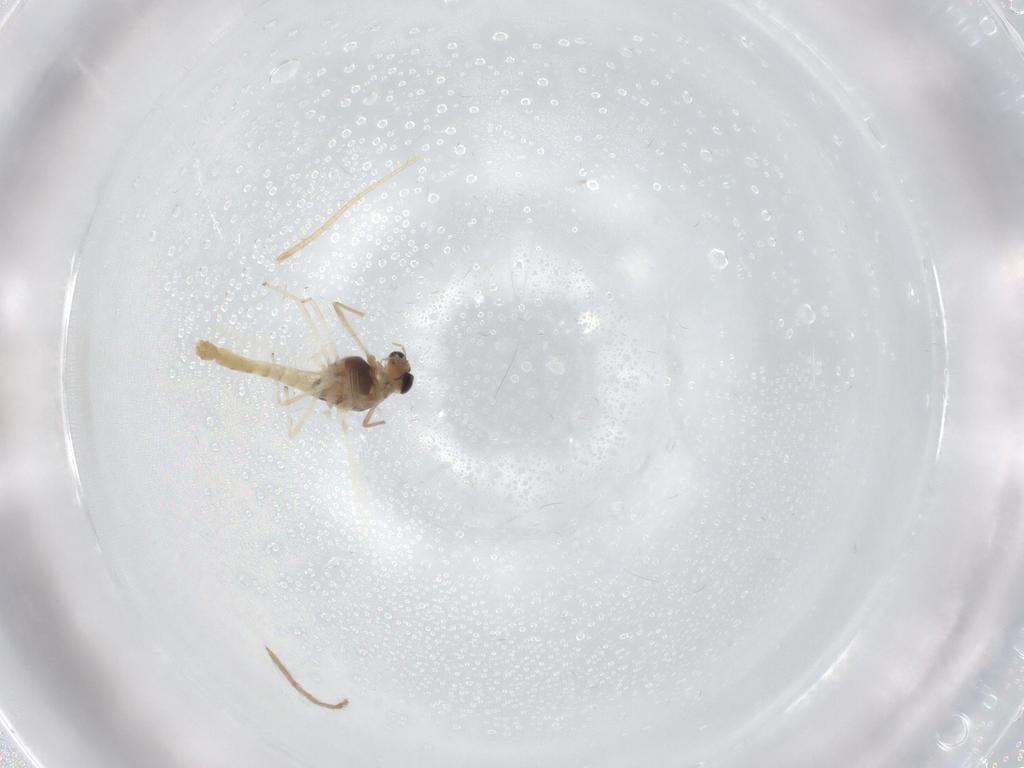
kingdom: Animalia
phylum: Arthropoda
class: Insecta
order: Diptera
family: Chironomidae
